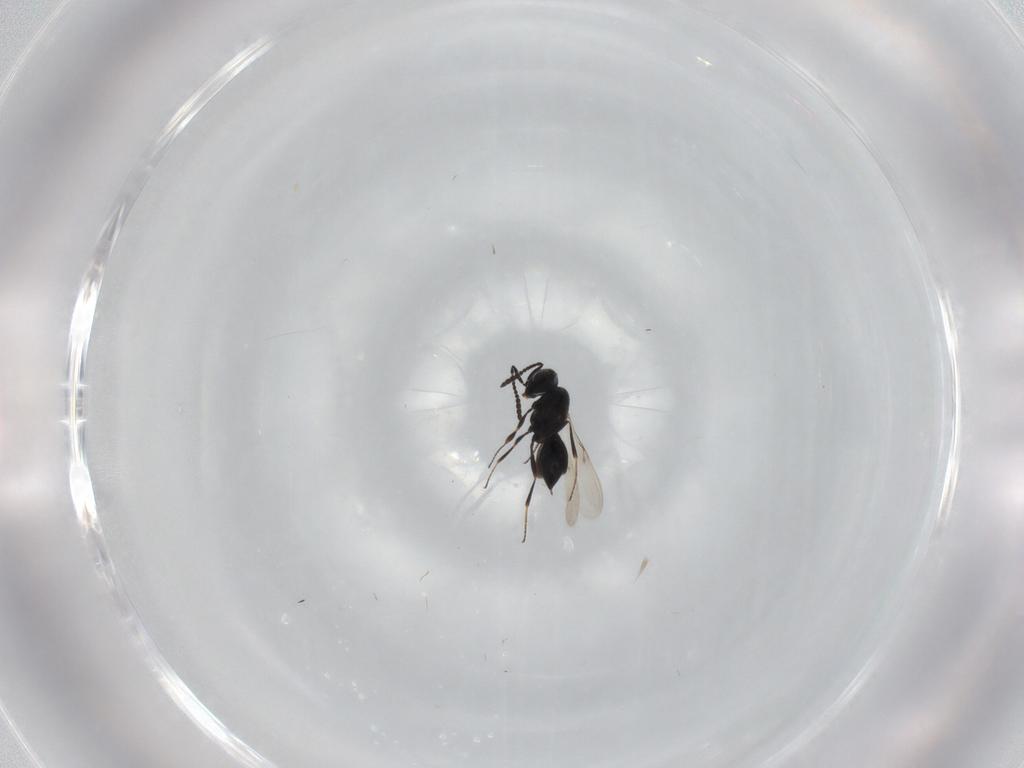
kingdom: Animalia
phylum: Arthropoda
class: Insecta
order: Hymenoptera
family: Scelionidae
